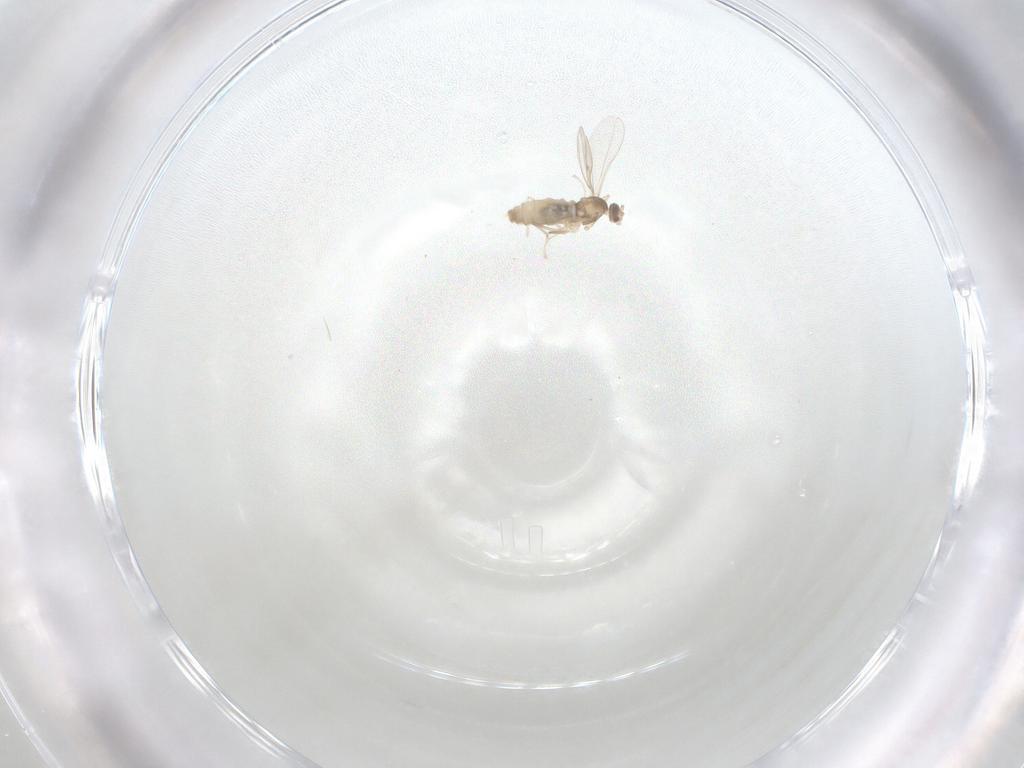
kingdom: Animalia
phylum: Arthropoda
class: Insecta
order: Diptera
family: Cecidomyiidae
